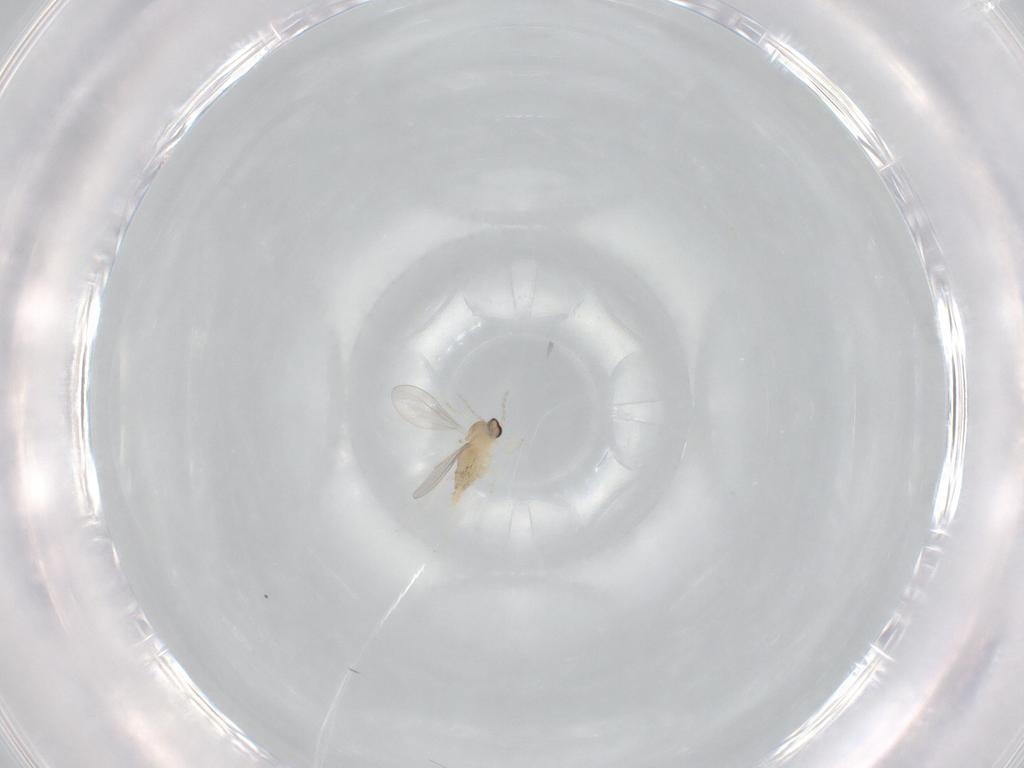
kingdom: Animalia
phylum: Arthropoda
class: Insecta
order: Diptera
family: Cecidomyiidae
